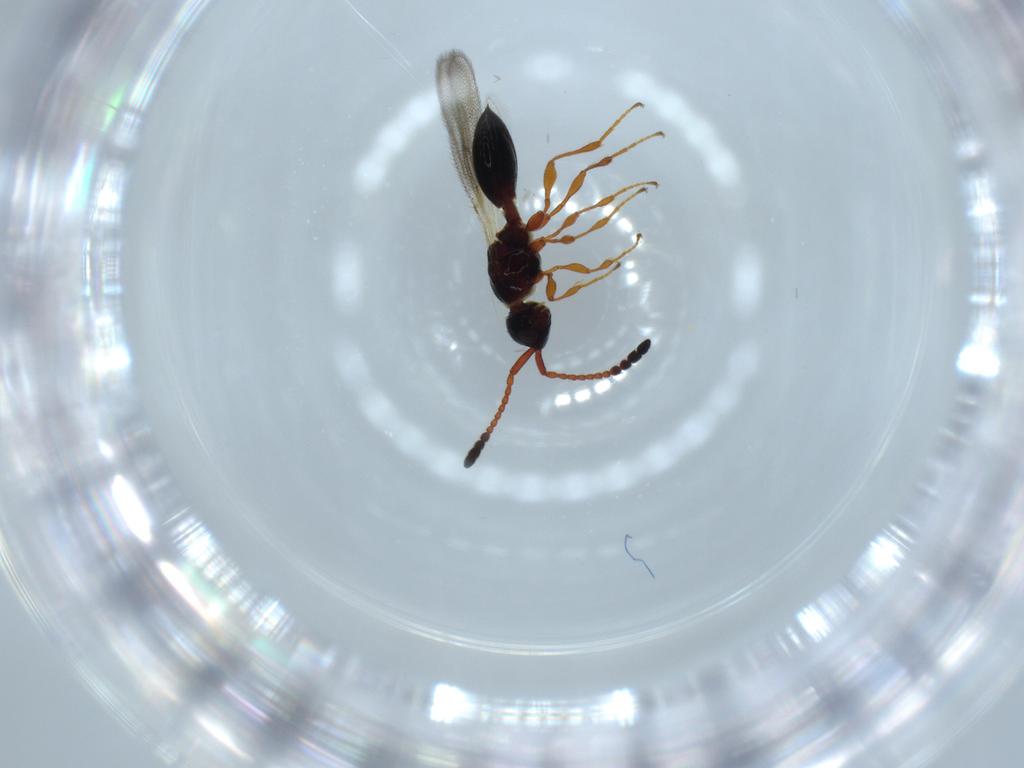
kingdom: Animalia
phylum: Arthropoda
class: Insecta
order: Hymenoptera
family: Diapriidae
